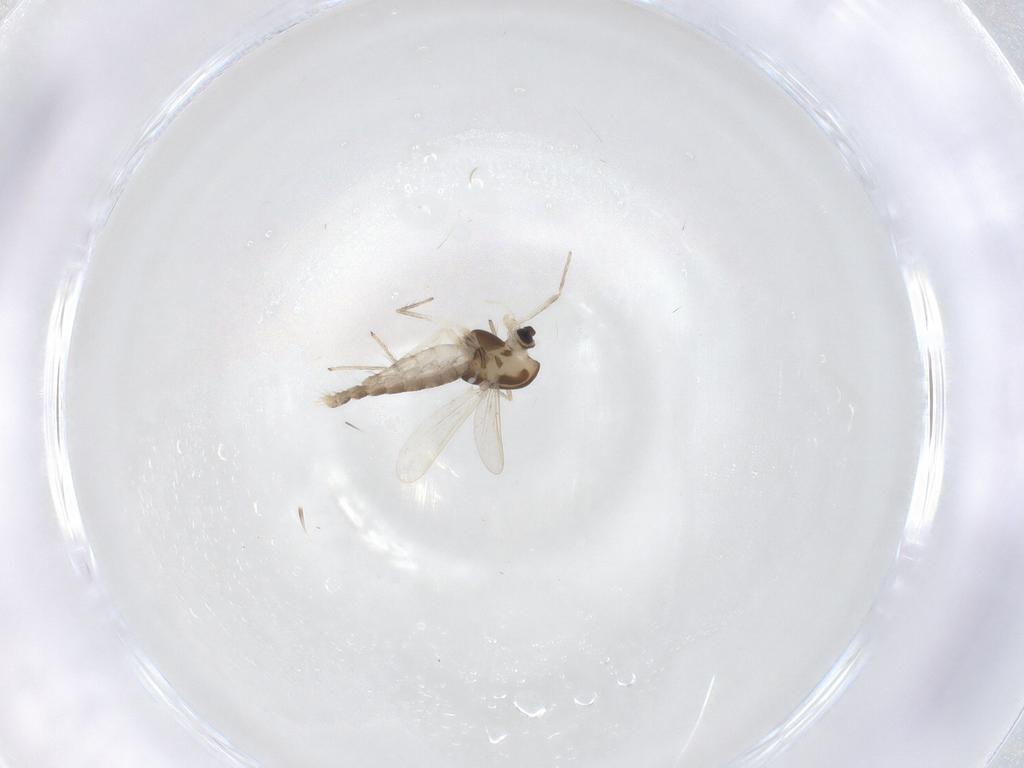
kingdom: Animalia
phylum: Arthropoda
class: Insecta
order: Diptera
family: Chironomidae
